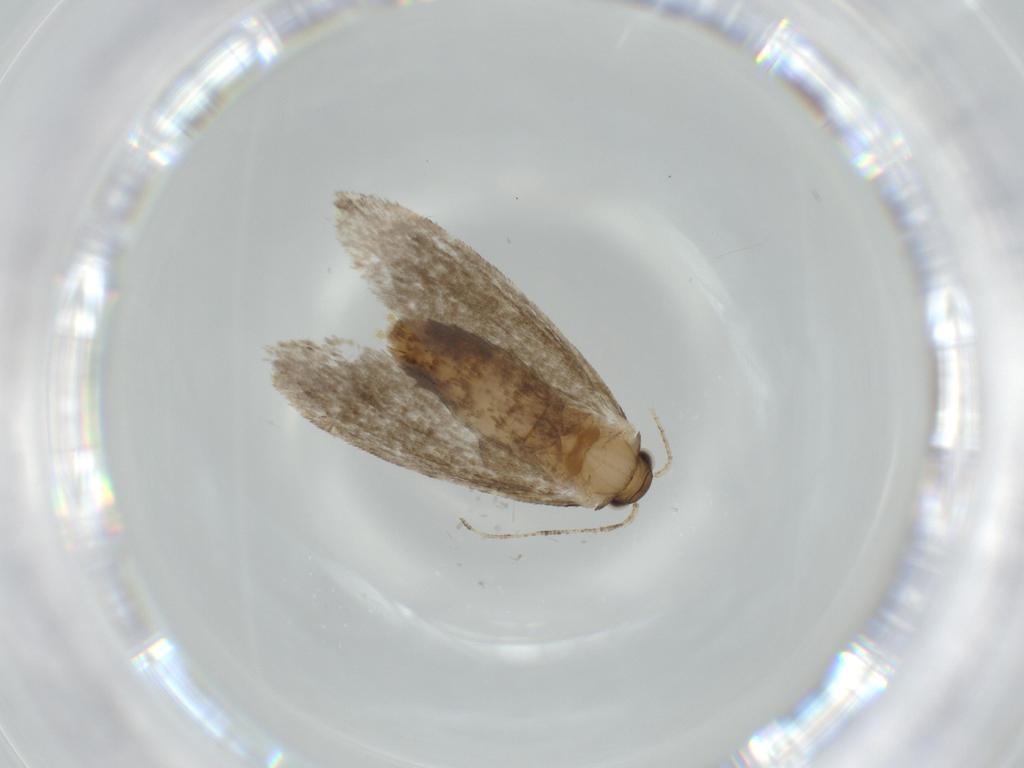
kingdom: Animalia
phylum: Arthropoda
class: Insecta
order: Lepidoptera
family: Tineidae
